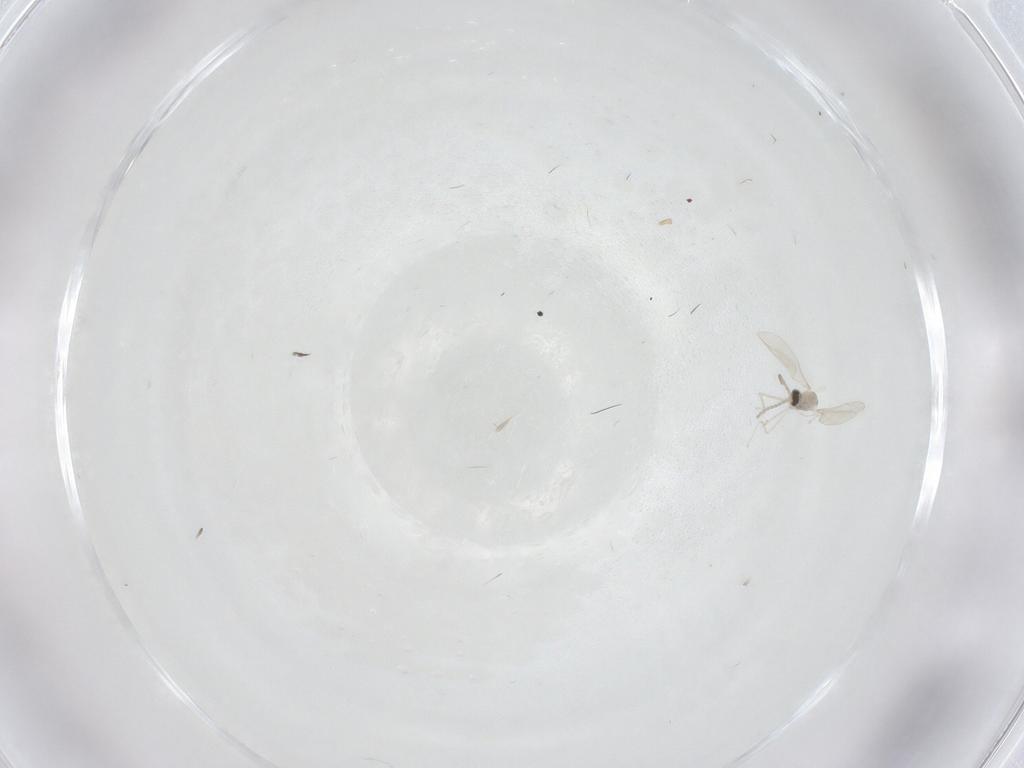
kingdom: Animalia
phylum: Arthropoda
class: Insecta
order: Diptera
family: Cecidomyiidae
